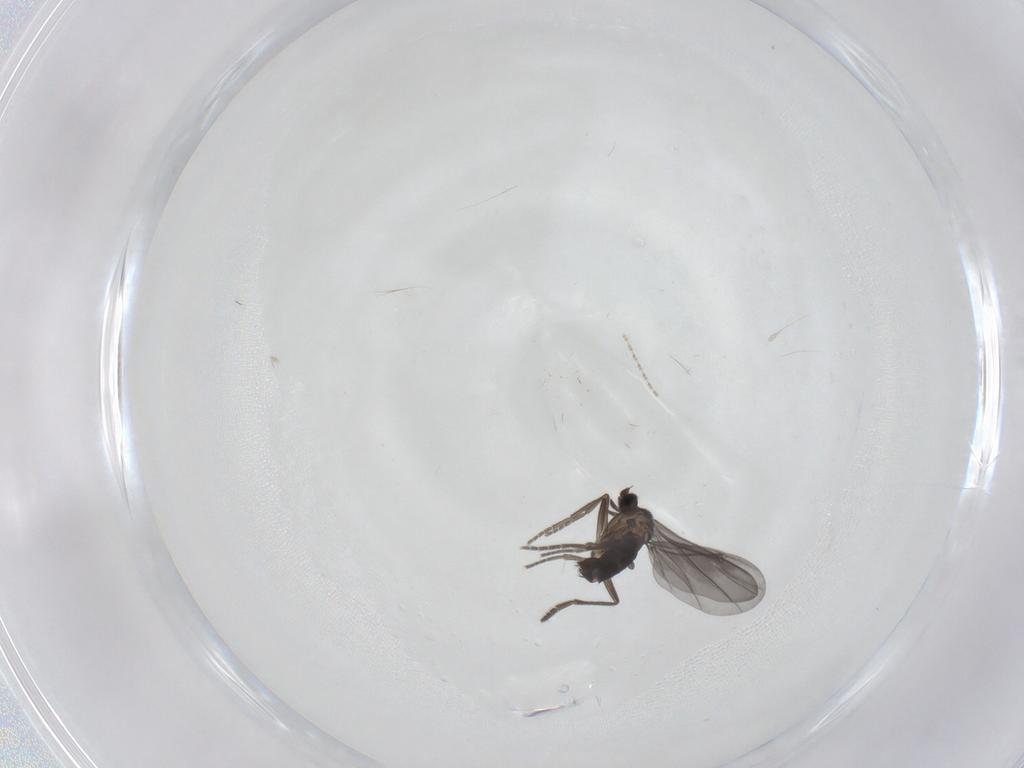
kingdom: Animalia
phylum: Arthropoda
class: Insecta
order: Diptera
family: Phoridae
